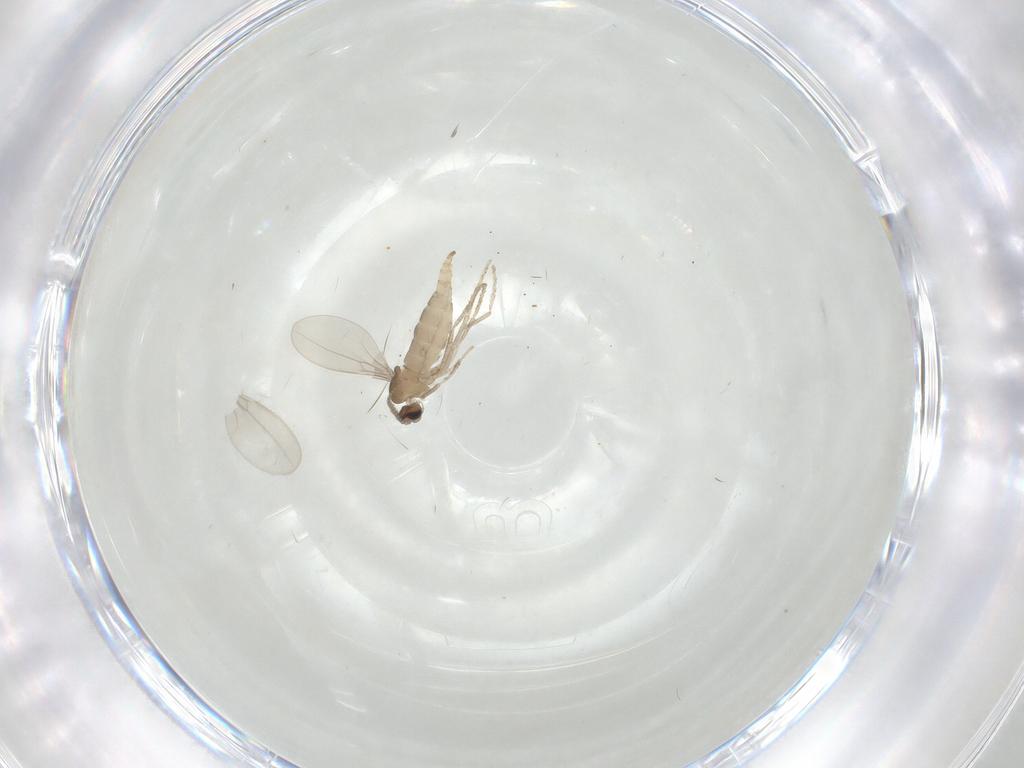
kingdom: Animalia
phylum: Arthropoda
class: Insecta
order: Diptera
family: Cecidomyiidae
